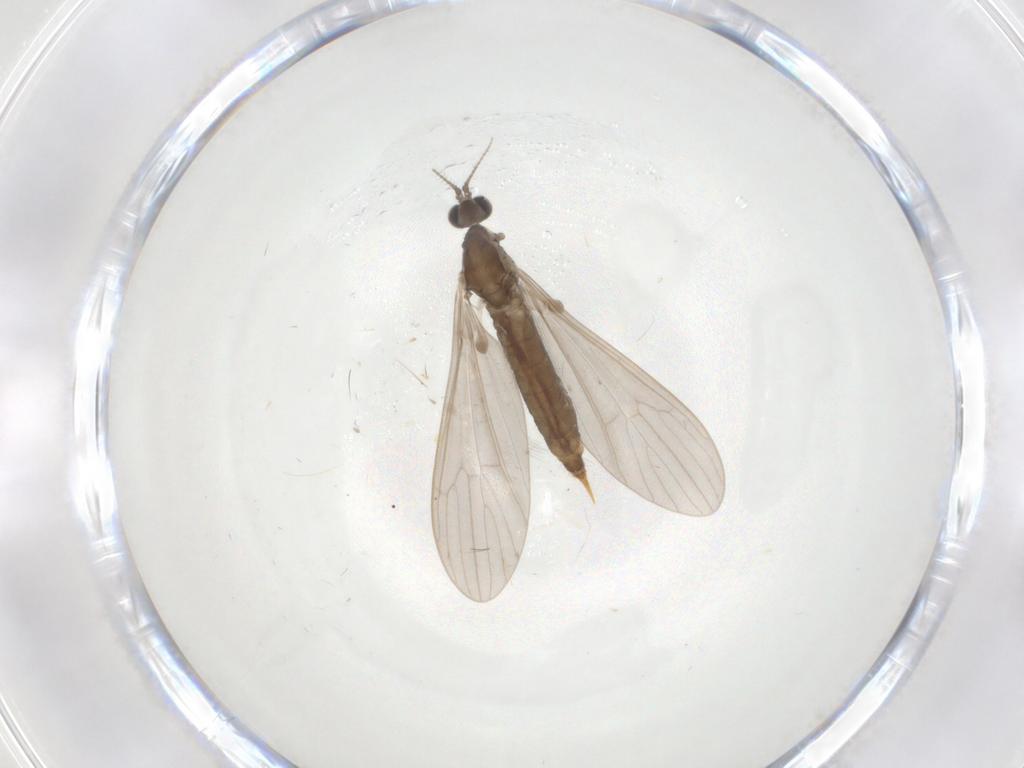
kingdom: Animalia
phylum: Arthropoda
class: Insecta
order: Diptera
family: Limoniidae
